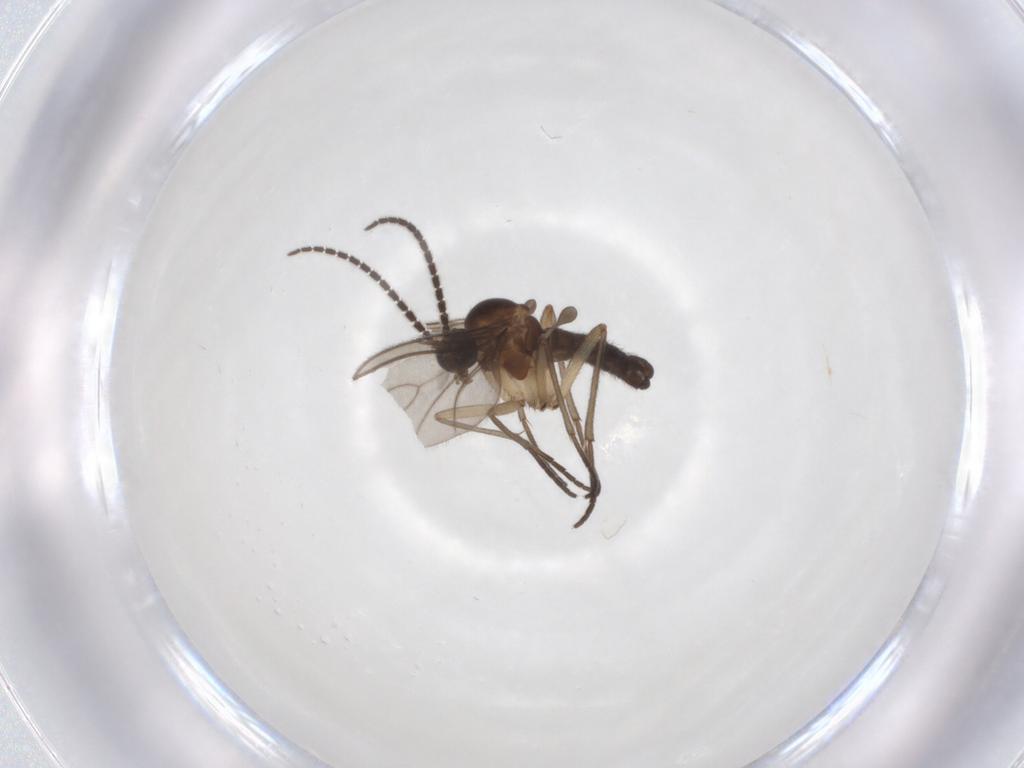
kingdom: Animalia
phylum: Arthropoda
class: Insecta
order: Diptera
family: Sciaridae
